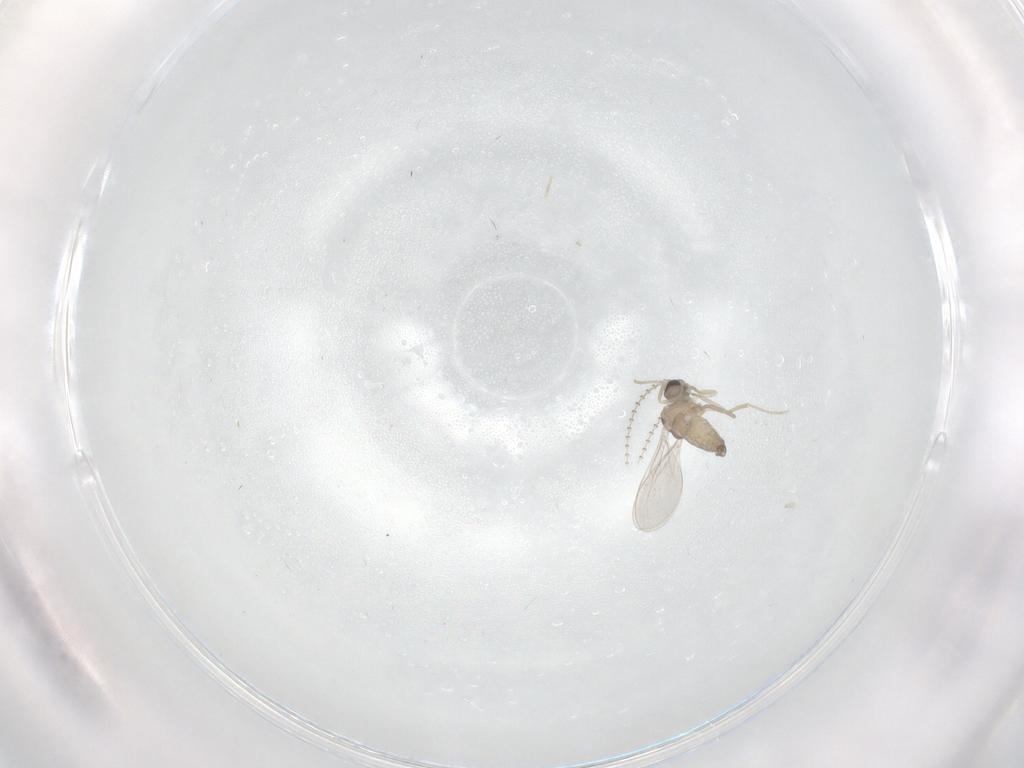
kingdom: Animalia
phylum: Arthropoda
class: Insecta
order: Diptera
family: Cecidomyiidae
